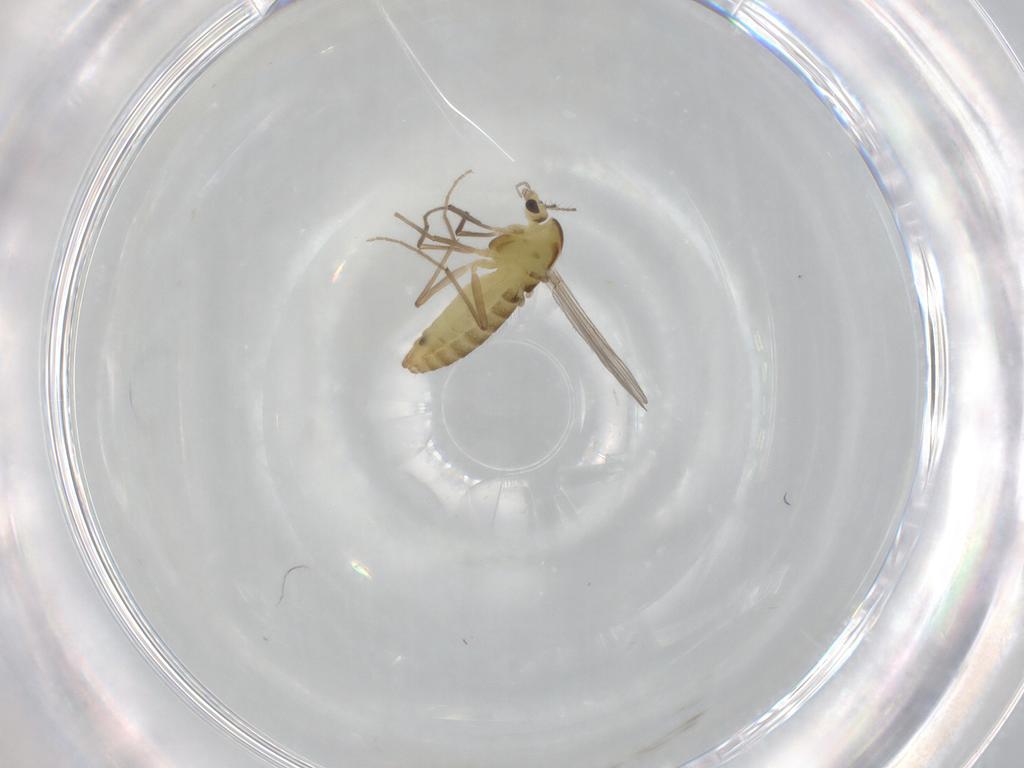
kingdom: Animalia
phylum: Arthropoda
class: Insecta
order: Diptera
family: Chironomidae
